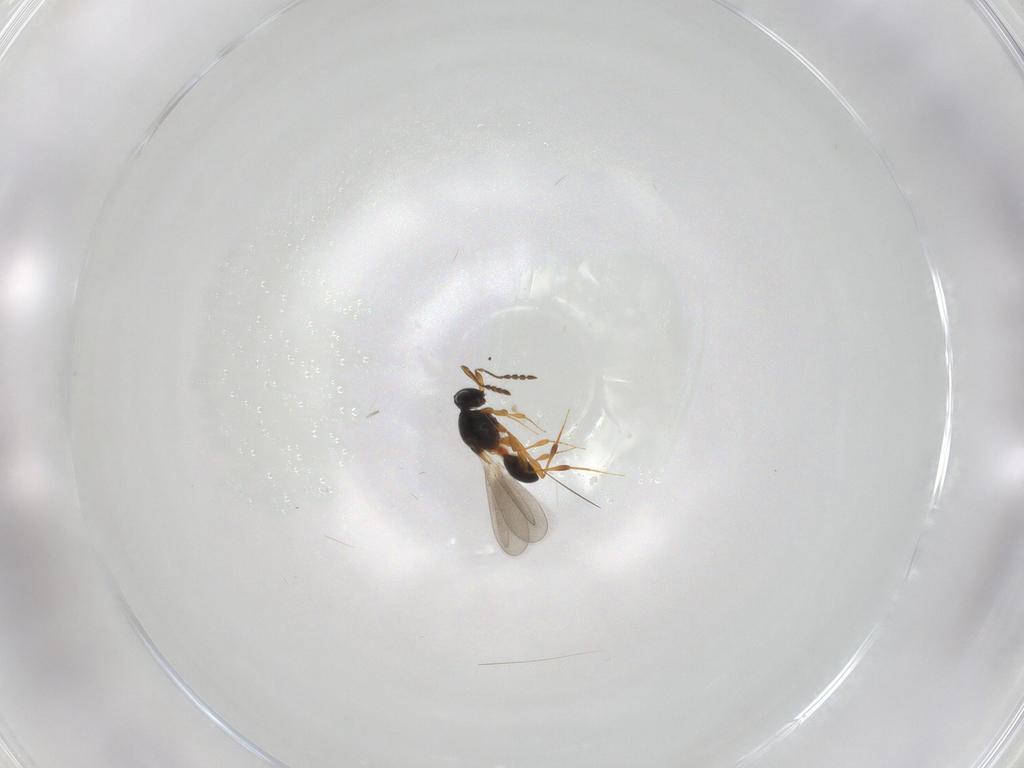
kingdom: Animalia
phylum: Arthropoda
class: Insecta
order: Hymenoptera
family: Platygastridae
